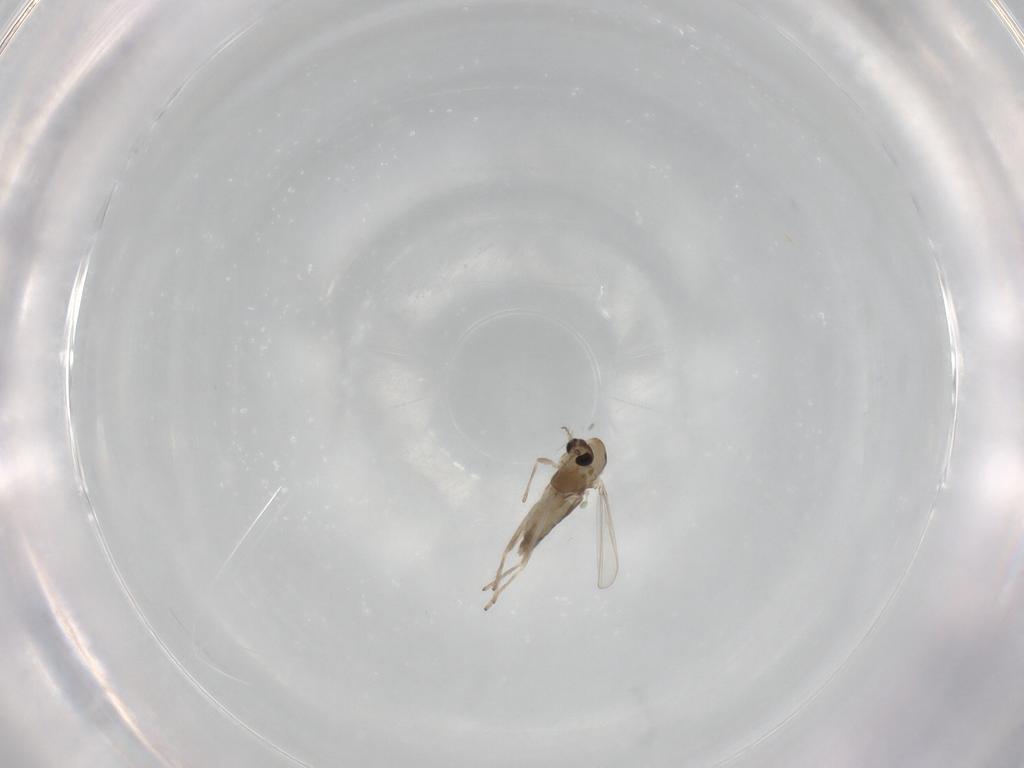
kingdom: Animalia
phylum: Arthropoda
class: Insecta
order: Diptera
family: Chironomidae
